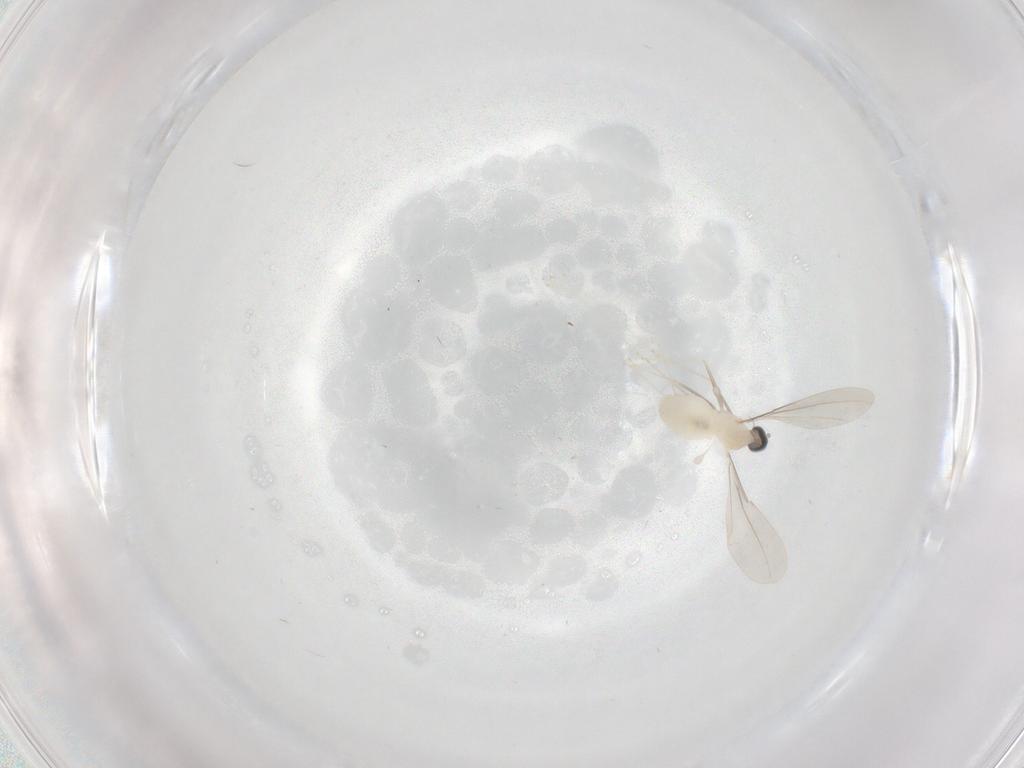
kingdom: Animalia
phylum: Arthropoda
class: Insecta
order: Diptera
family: Cecidomyiidae
